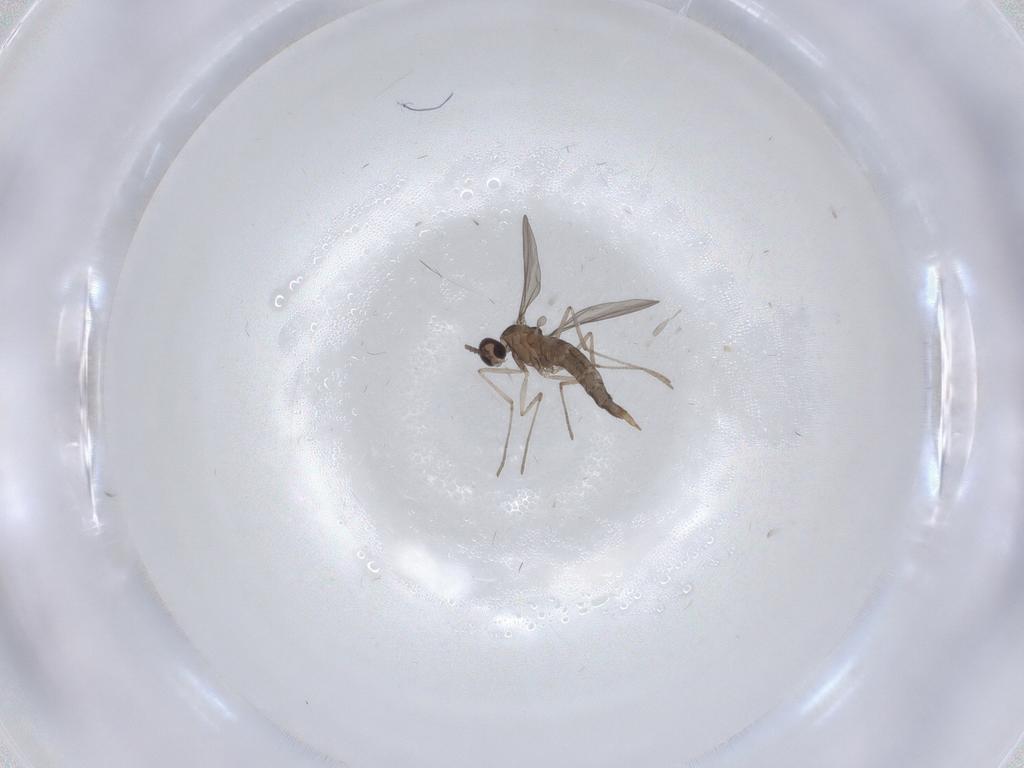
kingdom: Animalia
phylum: Arthropoda
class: Insecta
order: Diptera
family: Cecidomyiidae
